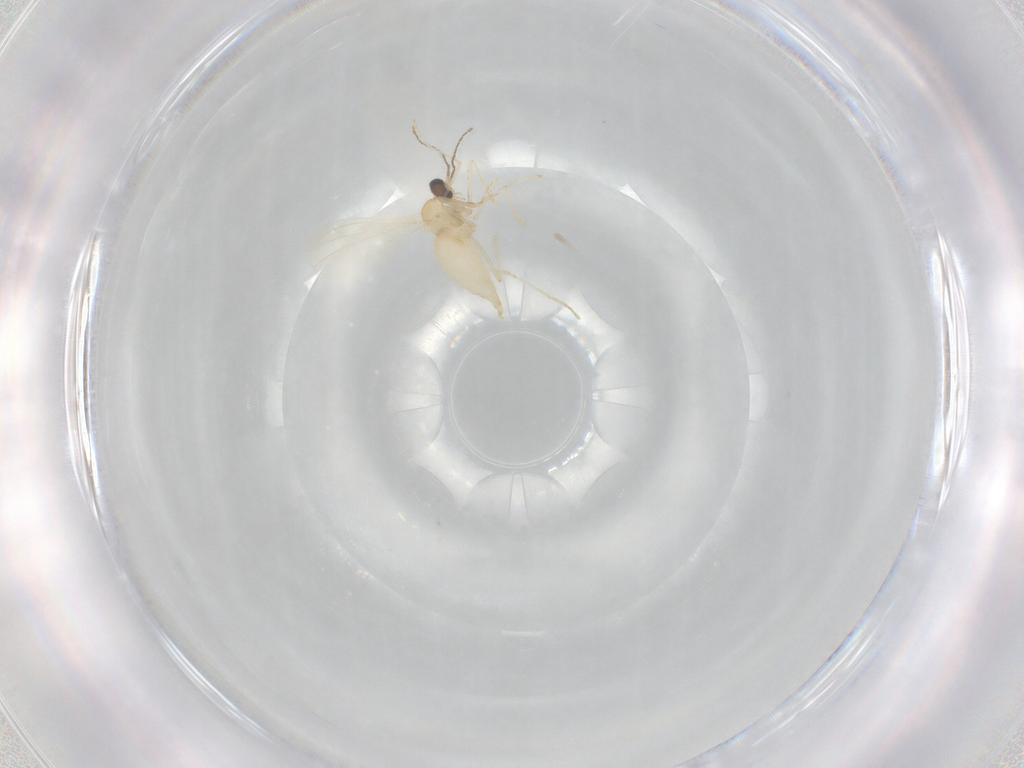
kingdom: Animalia
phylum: Arthropoda
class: Insecta
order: Diptera
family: Cecidomyiidae
